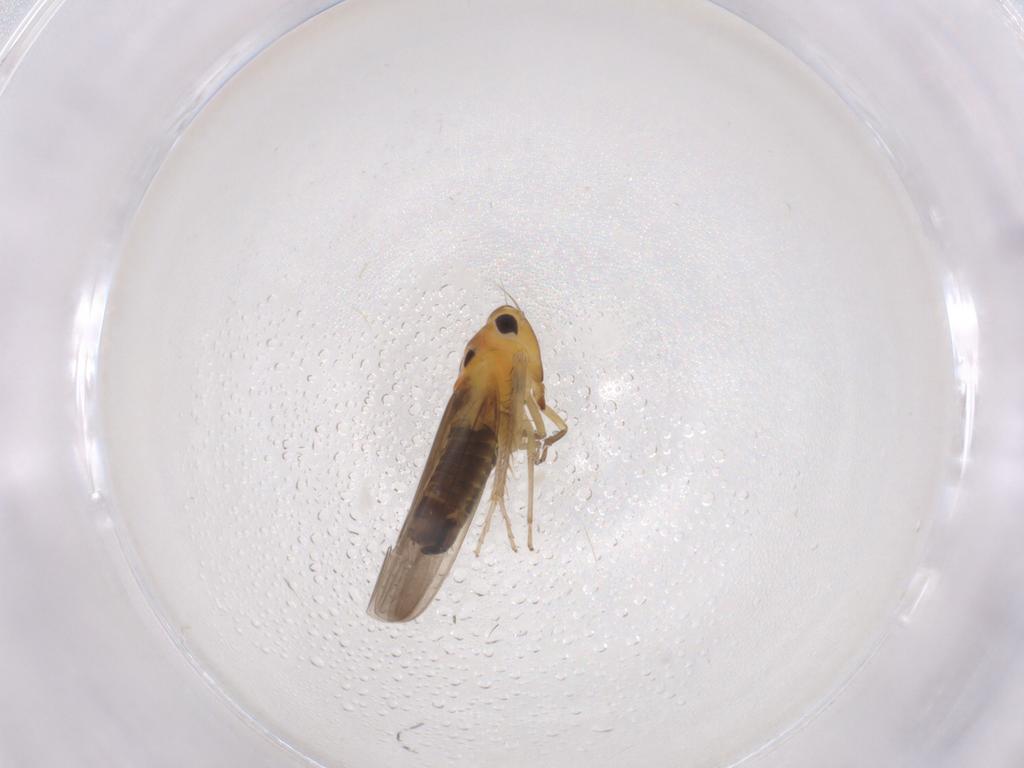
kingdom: Animalia
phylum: Arthropoda
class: Insecta
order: Hemiptera
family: Cicadellidae
